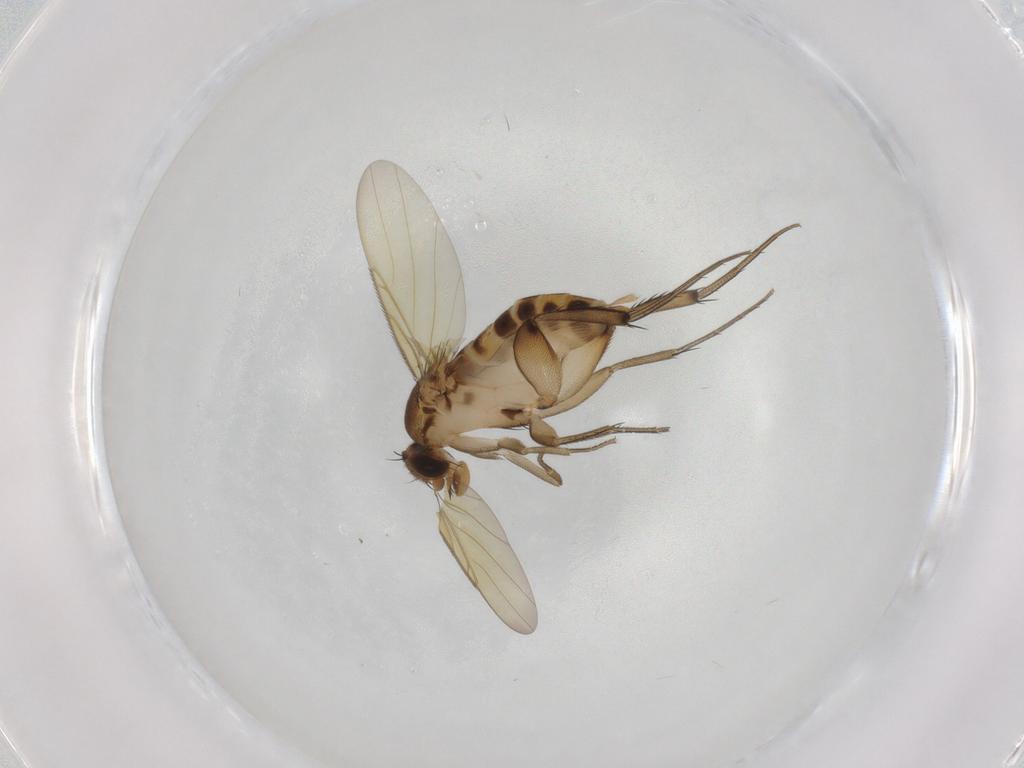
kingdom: Animalia
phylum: Arthropoda
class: Insecta
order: Diptera
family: Phoridae
